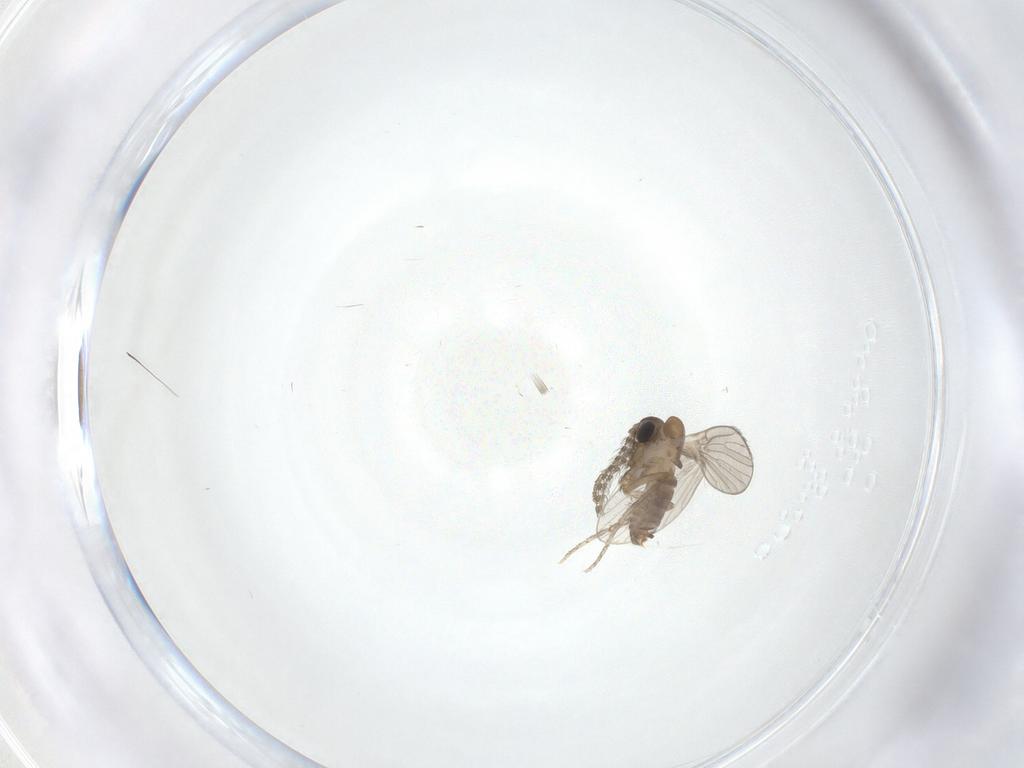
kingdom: Animalia
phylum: Arthropoda
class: Insecta
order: Diptera
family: Psychodidae
